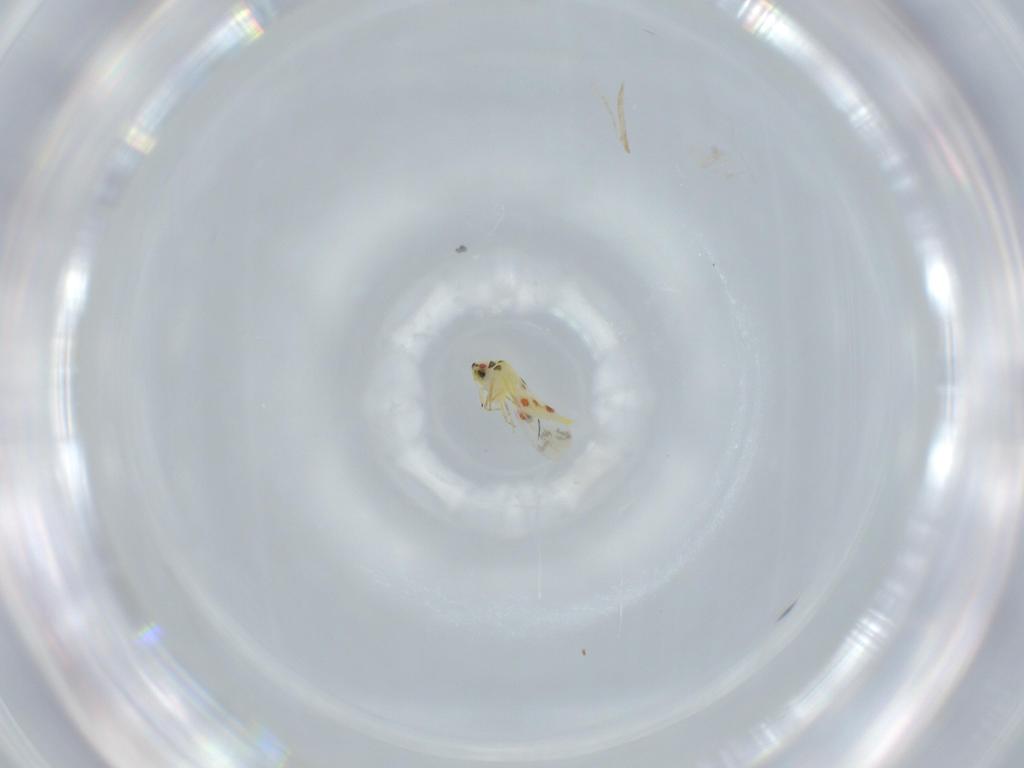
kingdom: Animalia
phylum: Arthropoda
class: Insecta
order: Hemiptera
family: Aleyrodidae
